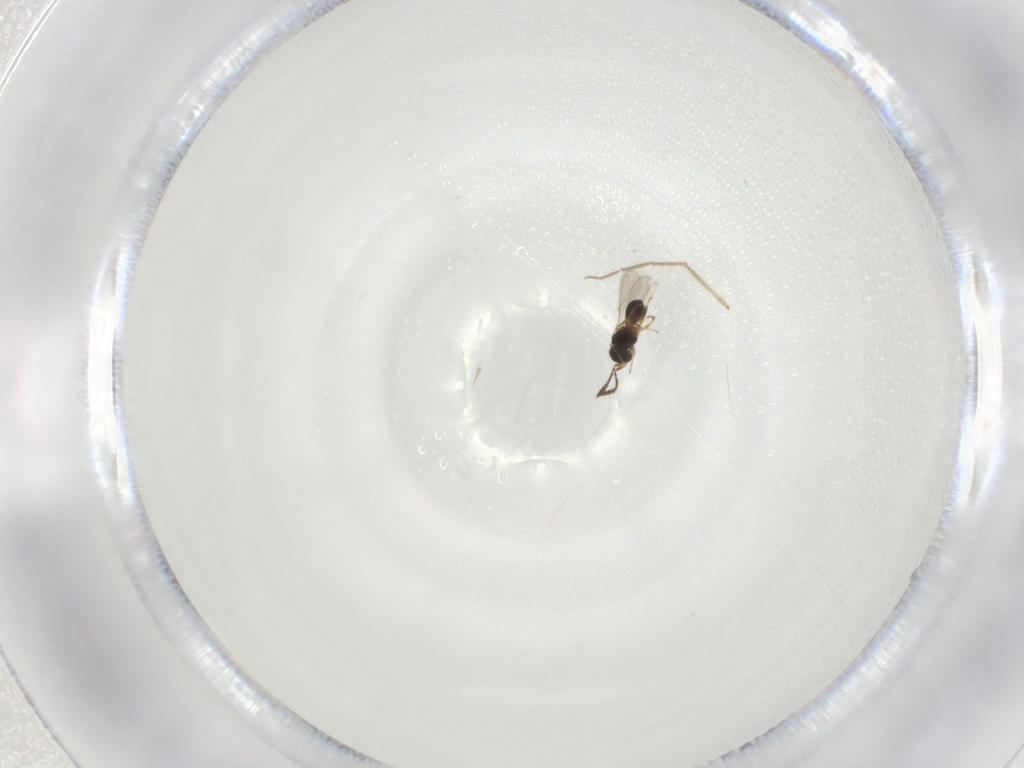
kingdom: Animalia
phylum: Arthropoda
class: Insecta
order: Hymenoptera
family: Scelionidae
